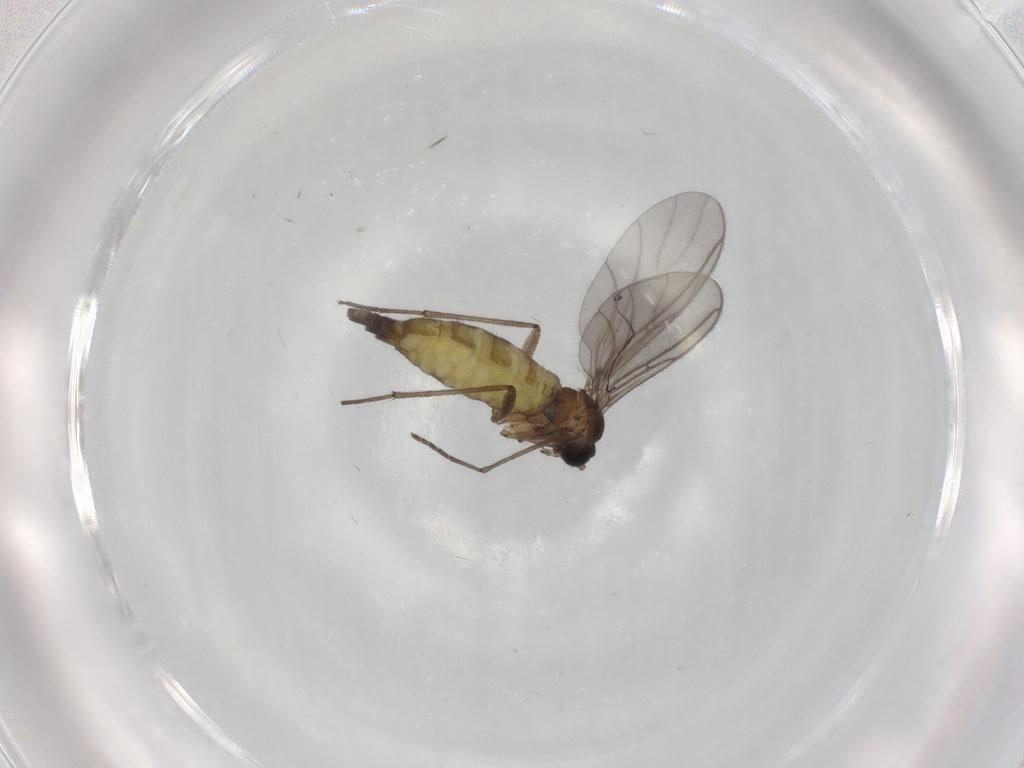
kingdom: Animalia
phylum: Arthropoda
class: Insecta
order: Diptera
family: Sciaridae
